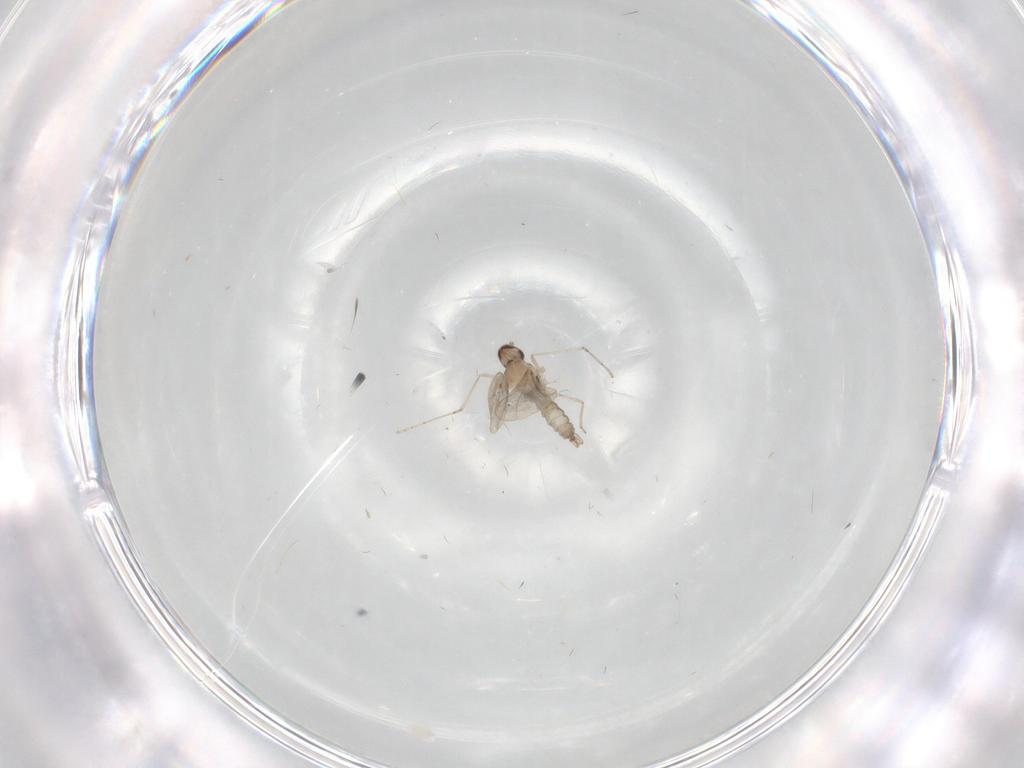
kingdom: Animalia
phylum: Arthropoda
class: Insecta
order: Diptera
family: Cecidomyiidae
